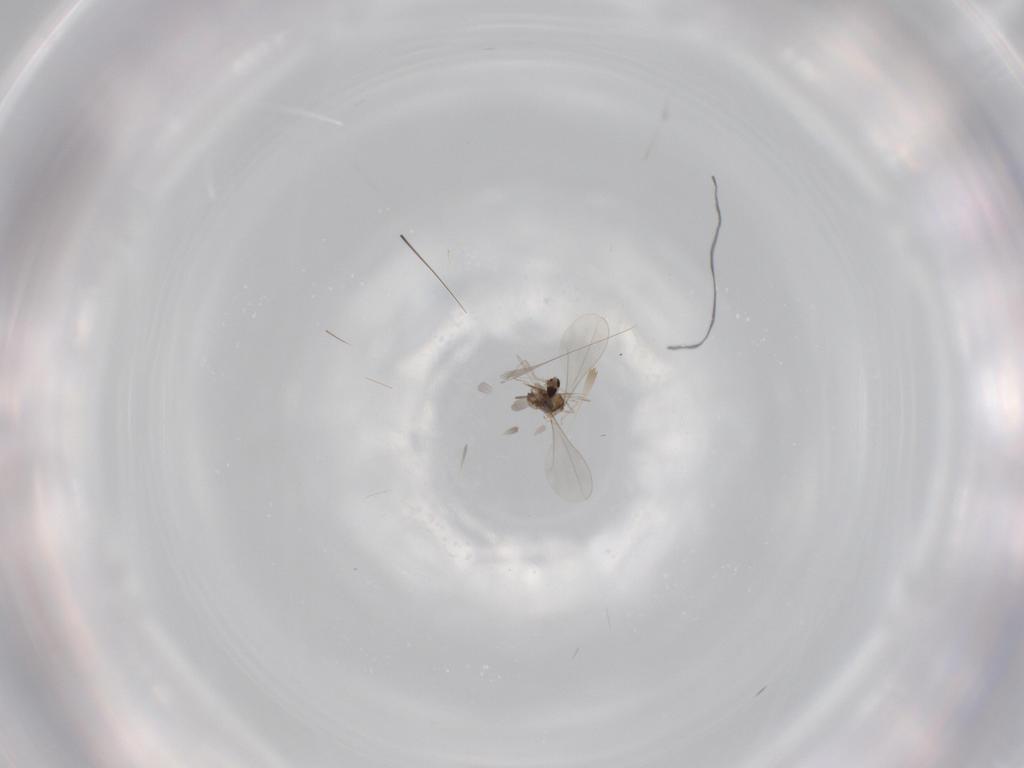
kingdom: Animalia
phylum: Arthropoda
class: Insecta
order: Diptera
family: Cecidomyiidae
